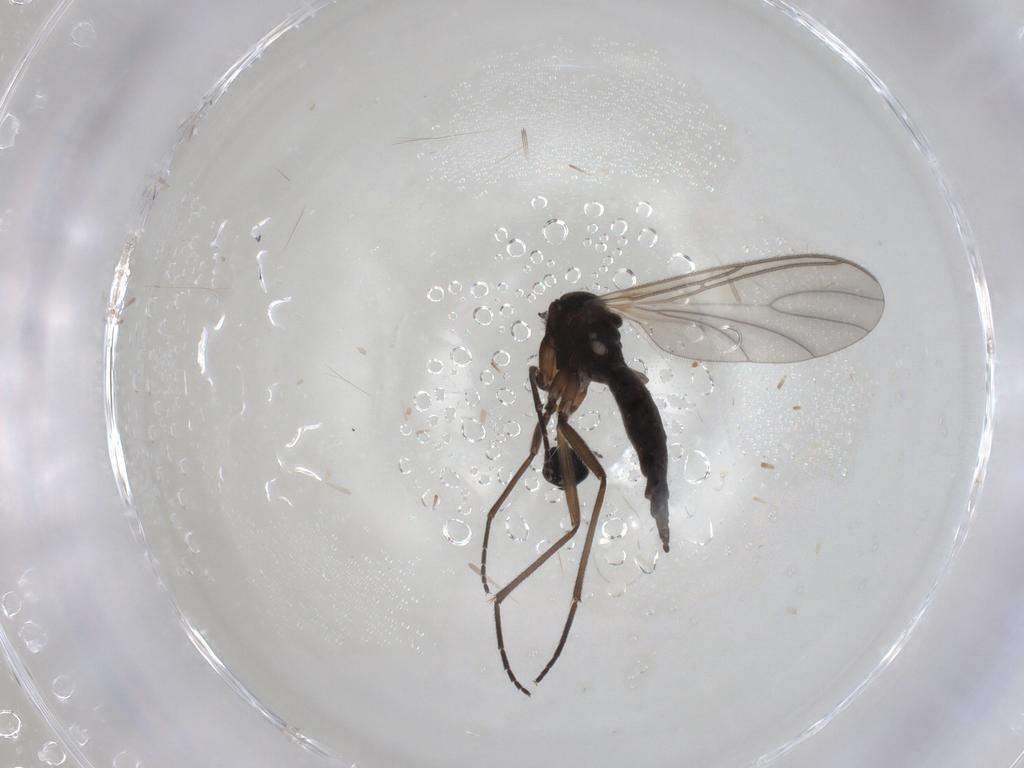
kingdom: Animalia
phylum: Arthropoda
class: Insecta
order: Diptera
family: Sciaridae
